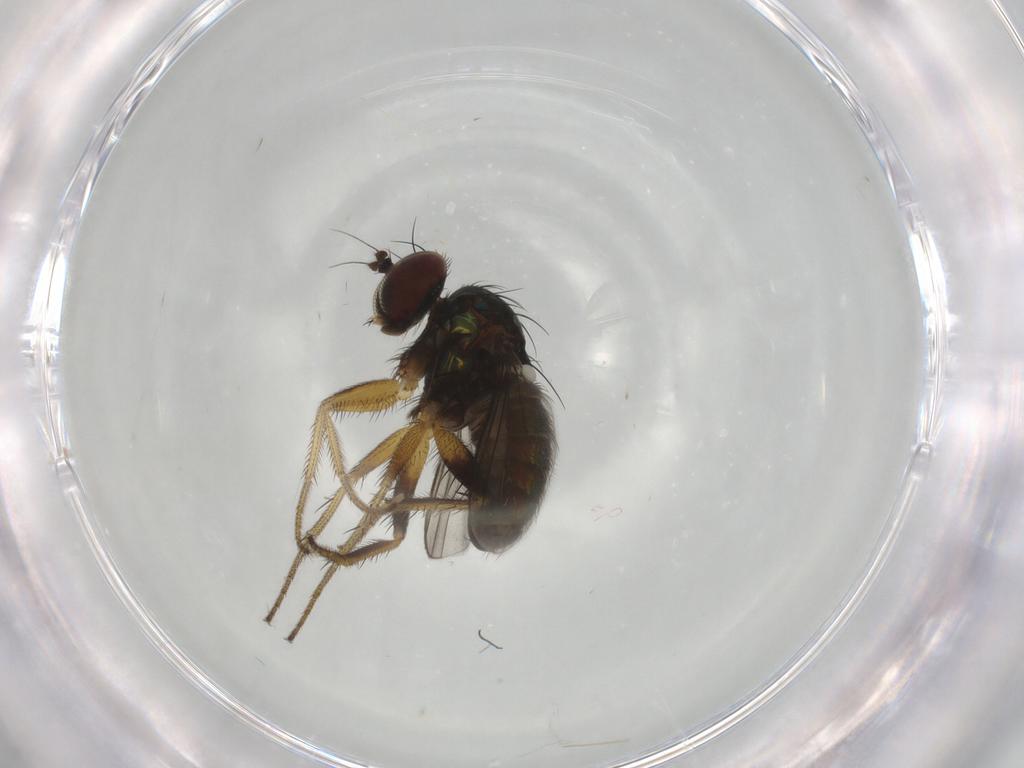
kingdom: Animalia
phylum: Arthropoda
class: Insecta
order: Diptera
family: Dolichopodidae
